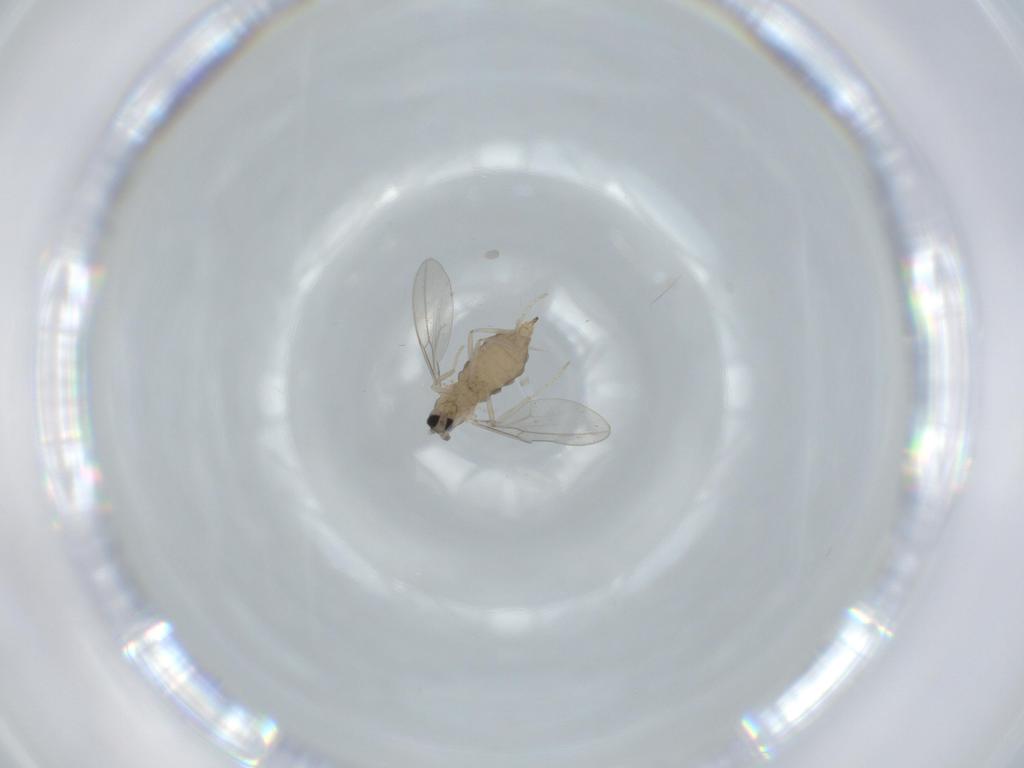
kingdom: Animalia
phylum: Arthropoda
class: Insecta
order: Diptera
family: Cecidomyiidae
